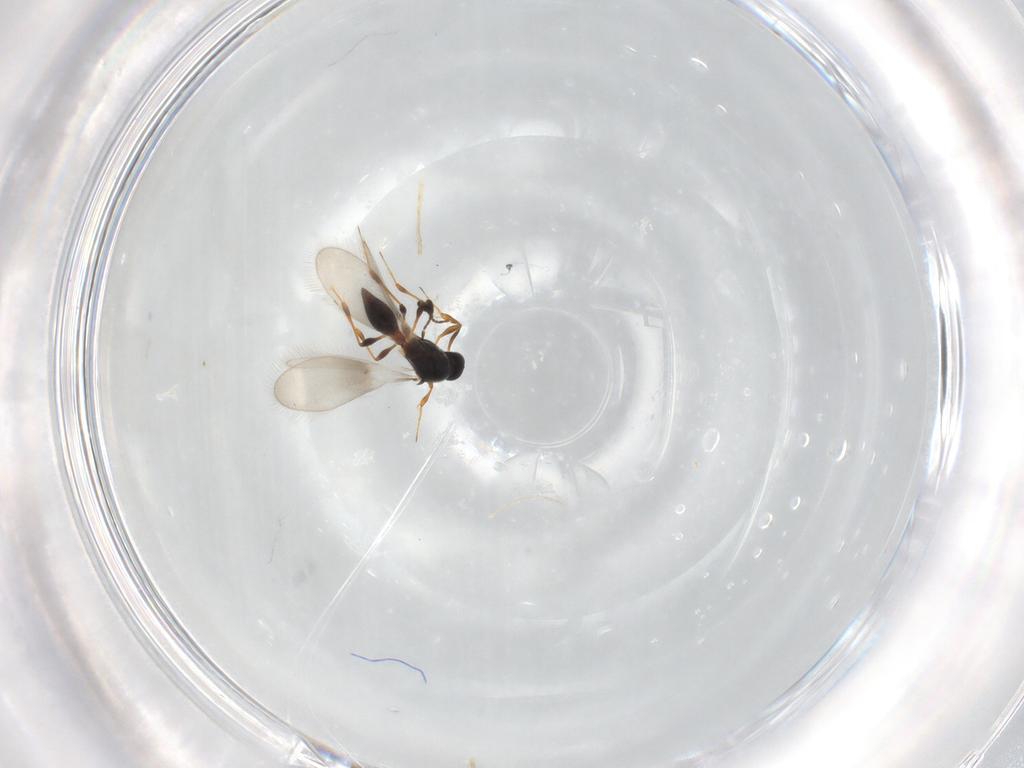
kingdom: Animalia
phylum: Arthropoda
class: Insecta
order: Hymenoptera
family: Platygastridae
